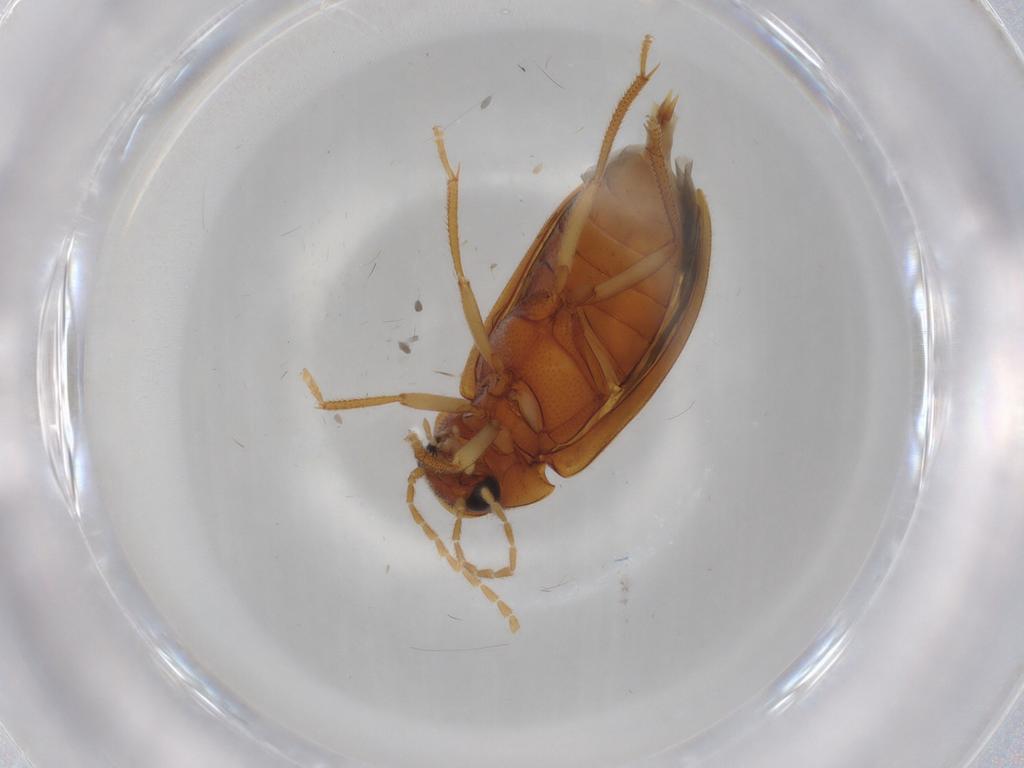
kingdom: Animalia
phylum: Arthropoda
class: Insecta
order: Coleoptera
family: Ptilodactylidae
